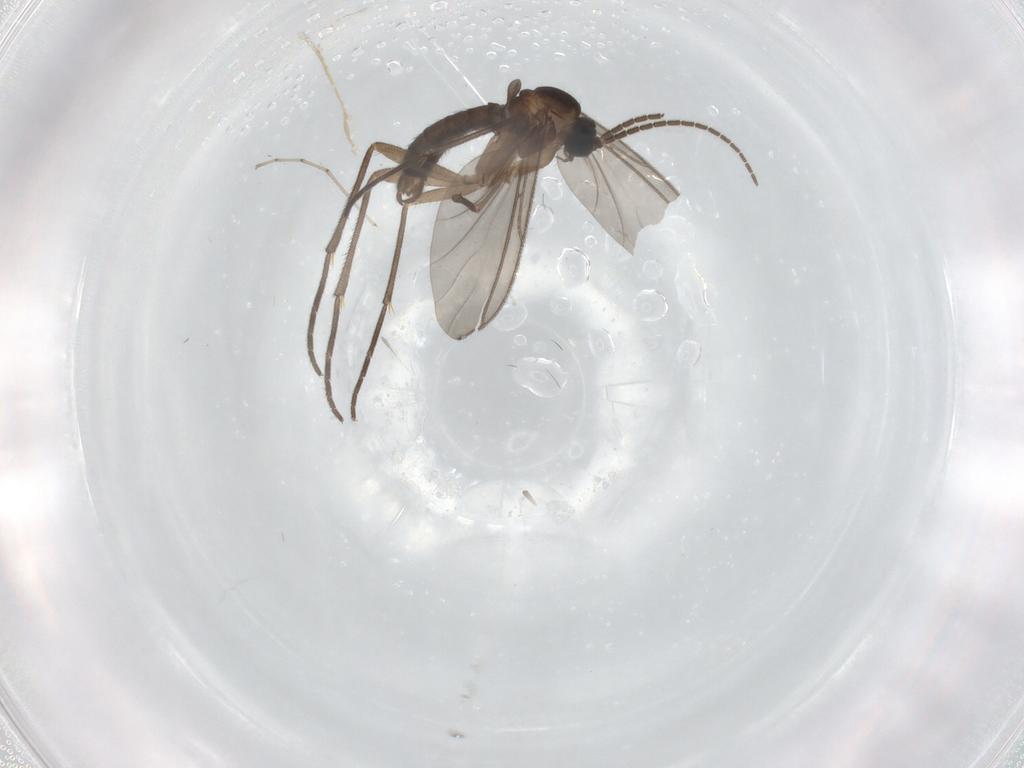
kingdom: Animalia
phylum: Arthropoda
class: Insecta
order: Diptera
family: Sciaridae
